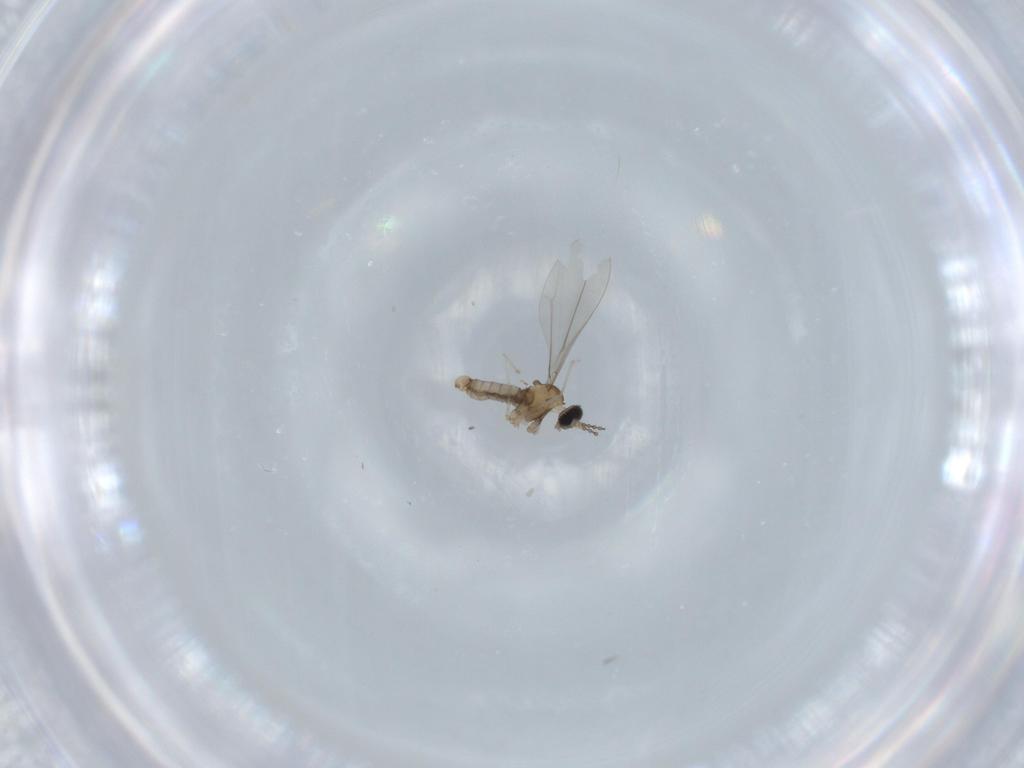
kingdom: Animalia
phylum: Arthropoda
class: Insecta
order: Diptera
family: Cecidomyiidae
